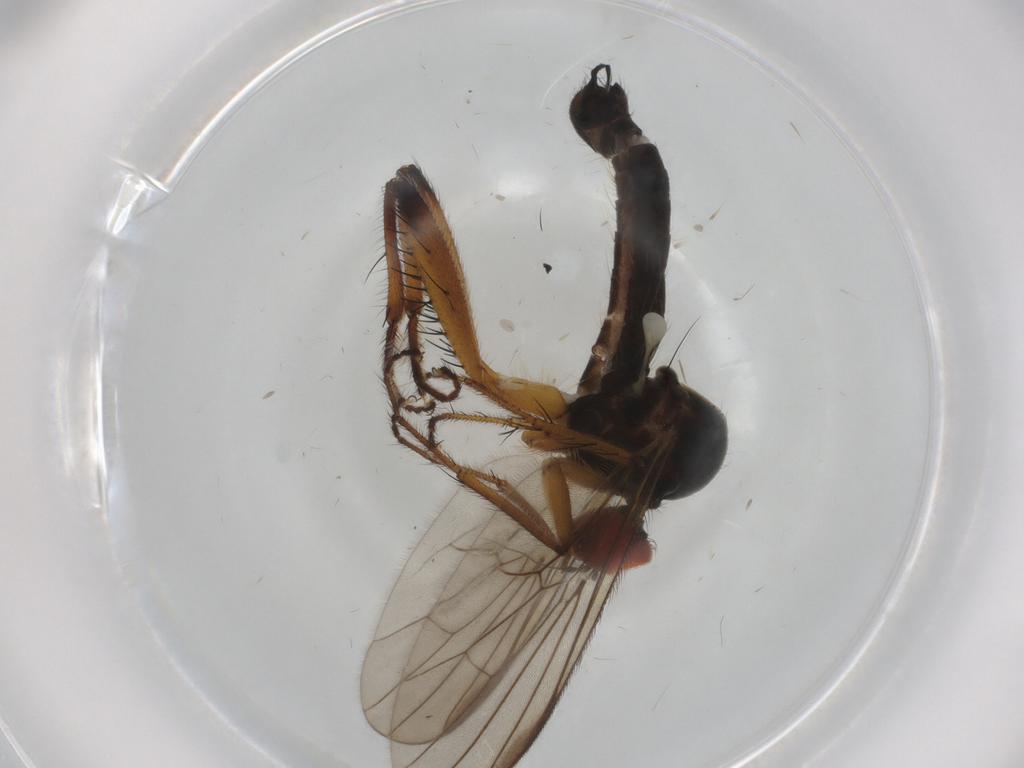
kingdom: Animalia
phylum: Arthropoda
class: Insecta
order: Diptera
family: Hybotidae
